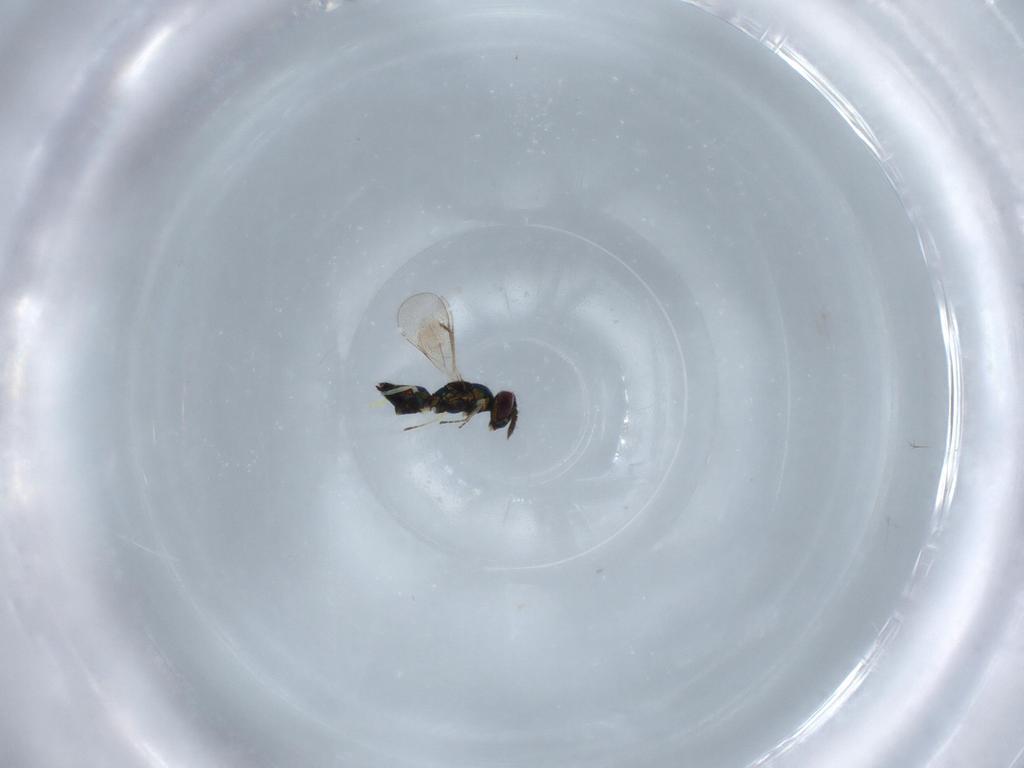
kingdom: Animalia
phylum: Arthropoda
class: Insecta
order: Hymenoptera
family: Eulophidae
